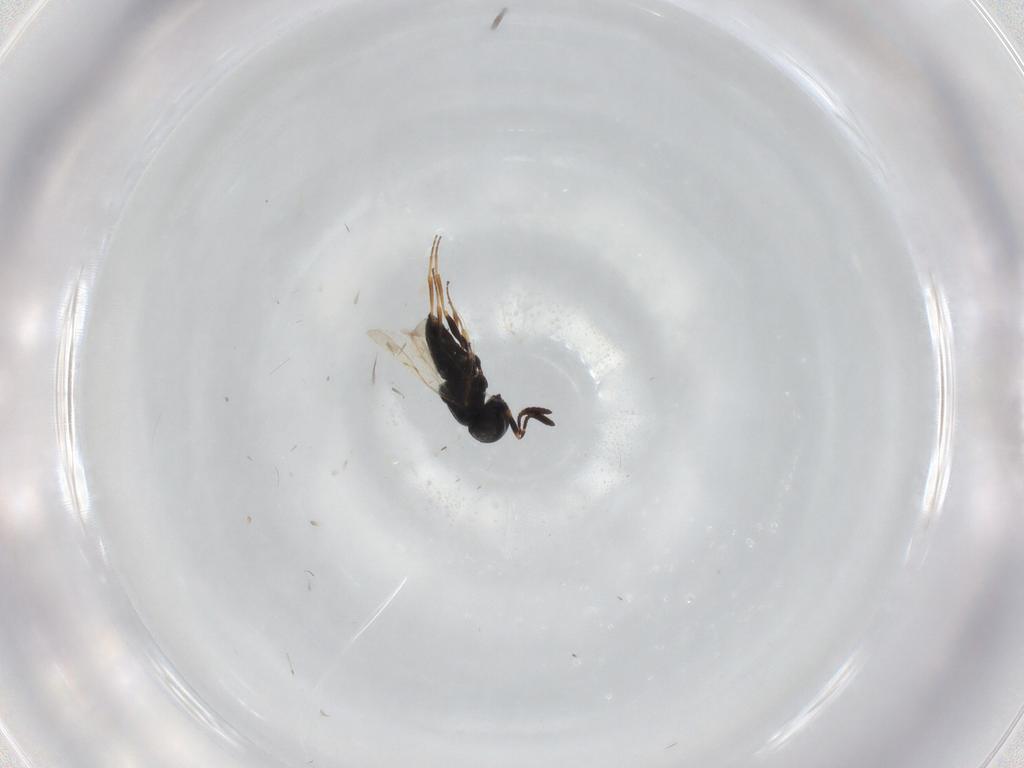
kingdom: Animalia
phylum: Arthropoda
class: Insecta
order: Hymenoptera
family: Scelionidae
